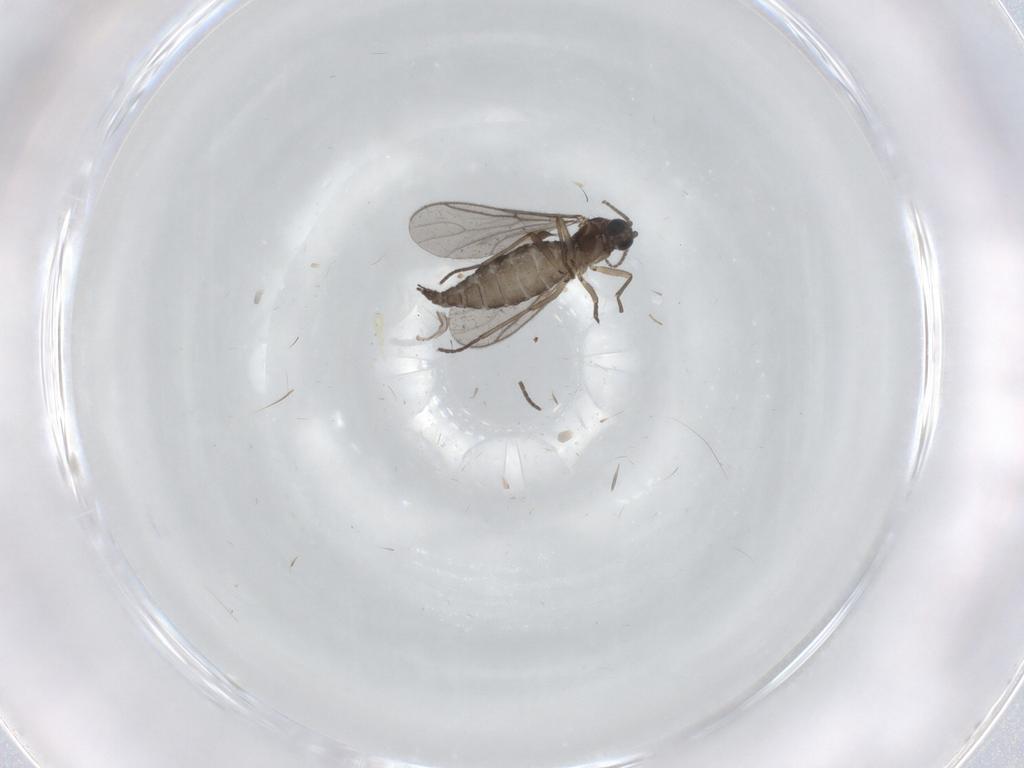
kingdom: Animalia
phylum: Arthropoda
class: Insecta
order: Diptera
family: Sciaridae
